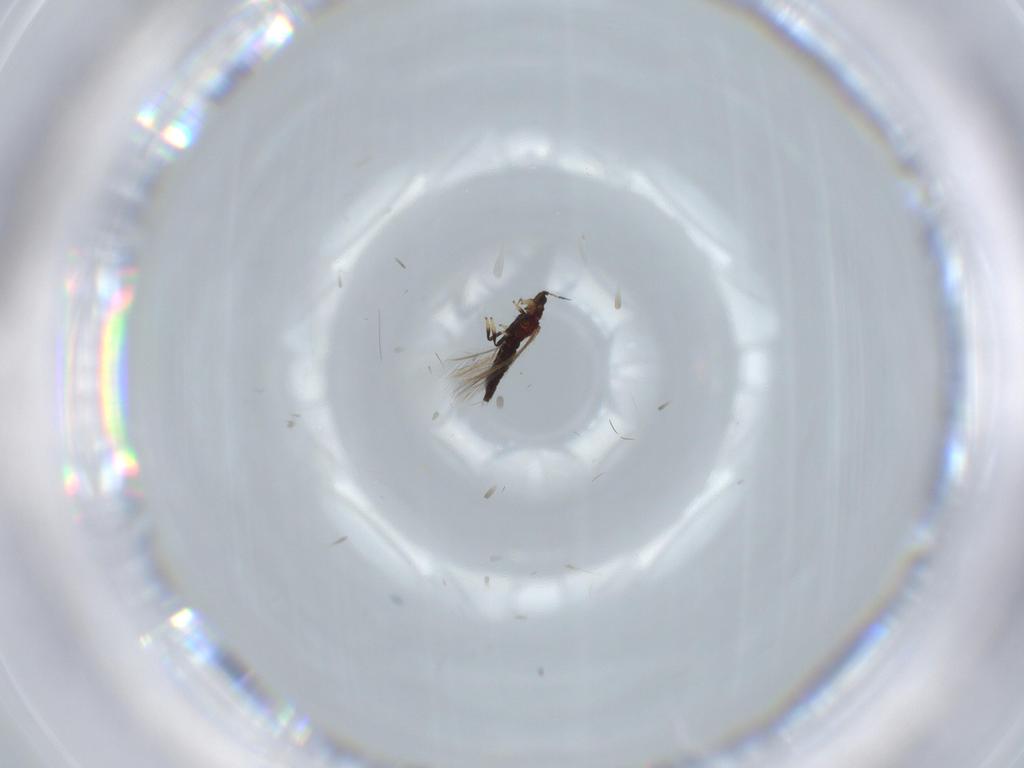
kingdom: Animalia
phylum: Arthropoda
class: Insecta
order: Thysanoptera
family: Thripidae
